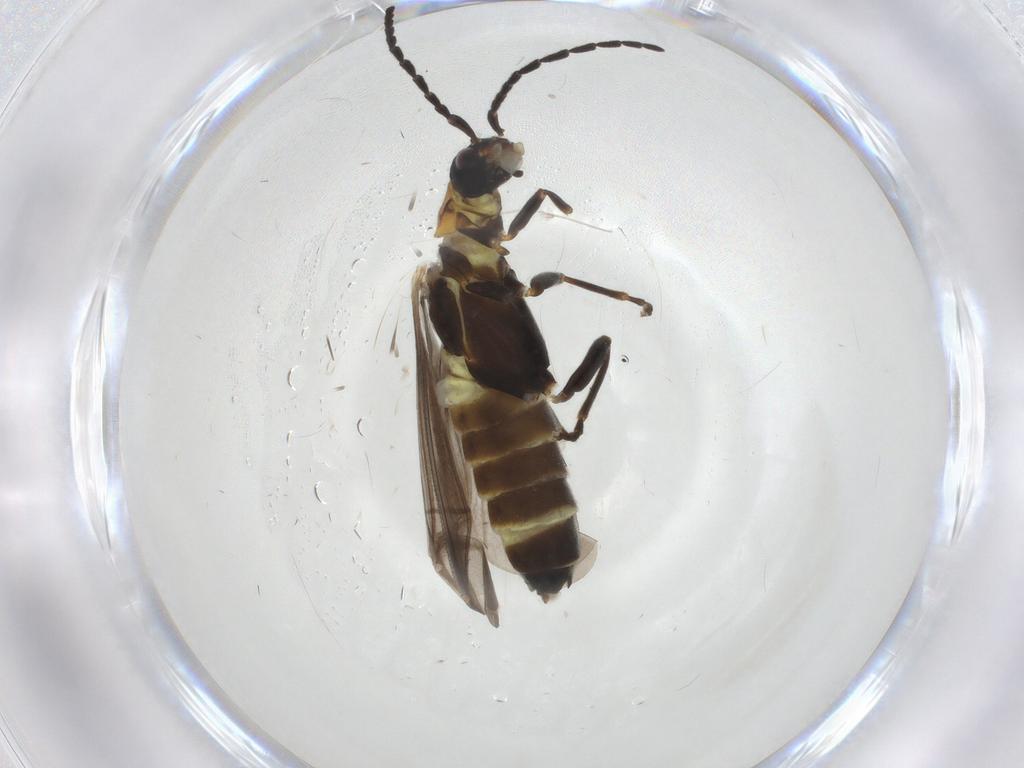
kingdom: Animalia
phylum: Arthropoda
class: Insecta
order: Coleoptera
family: Cantharidae
